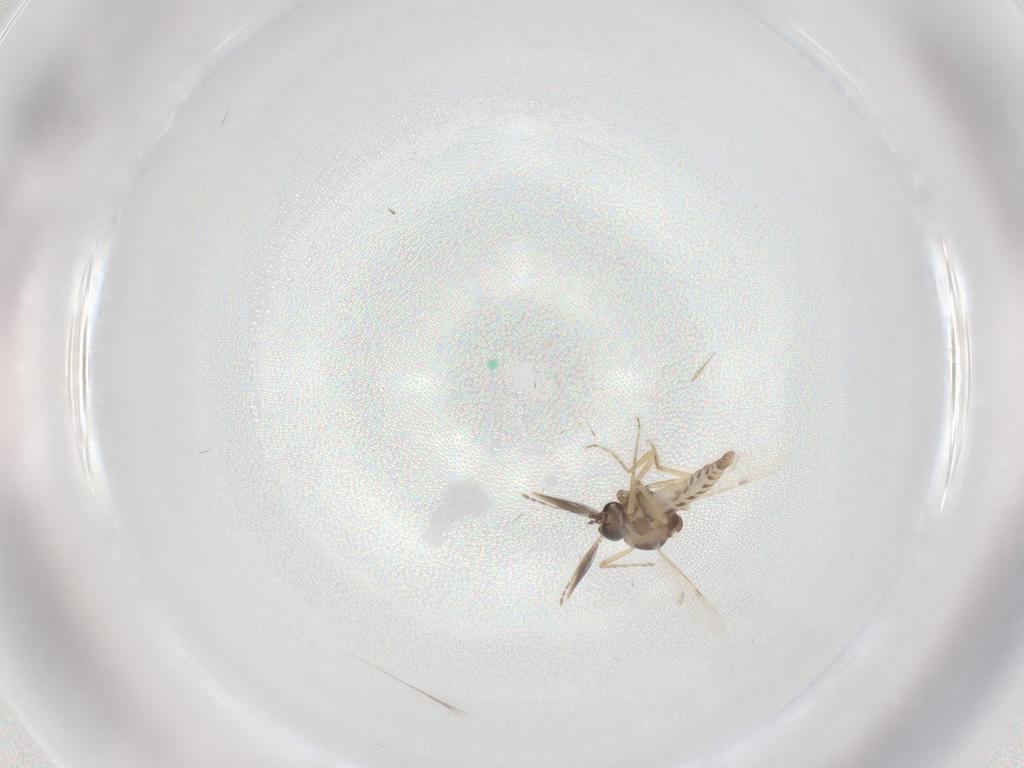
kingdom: Animalia
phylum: Arthropoda
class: Insecta
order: Diptera
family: Ceratopogonidae
